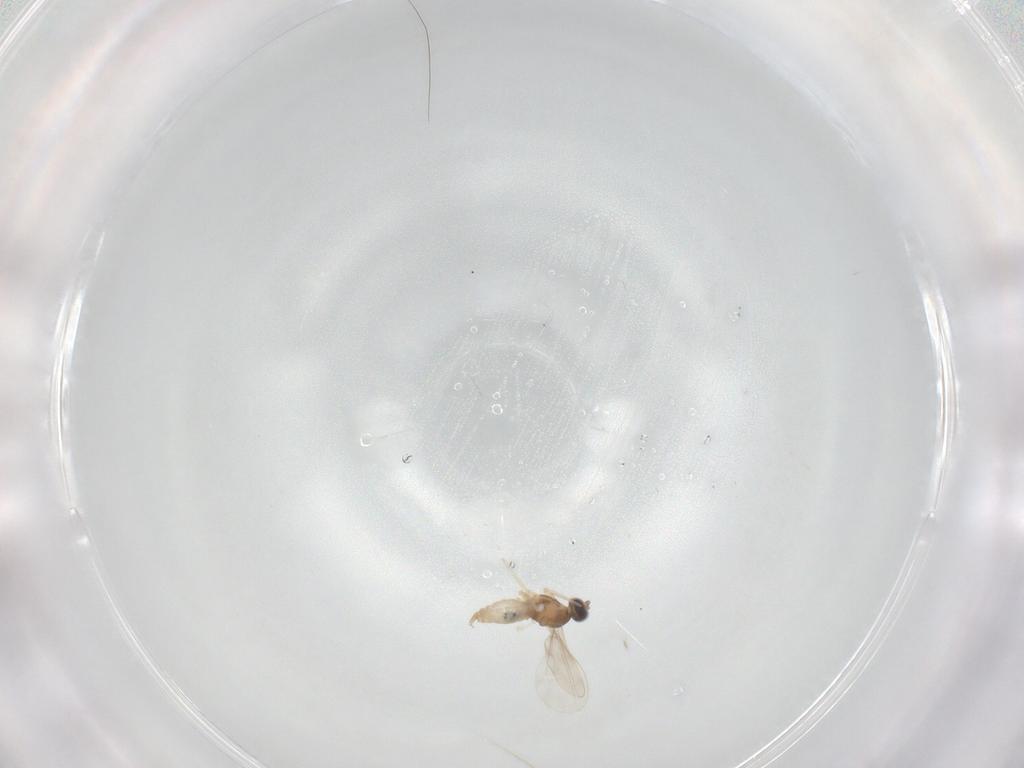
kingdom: Animalia
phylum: Arthropoda
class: Insecta
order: Diptera
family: Cecidomyiidae
